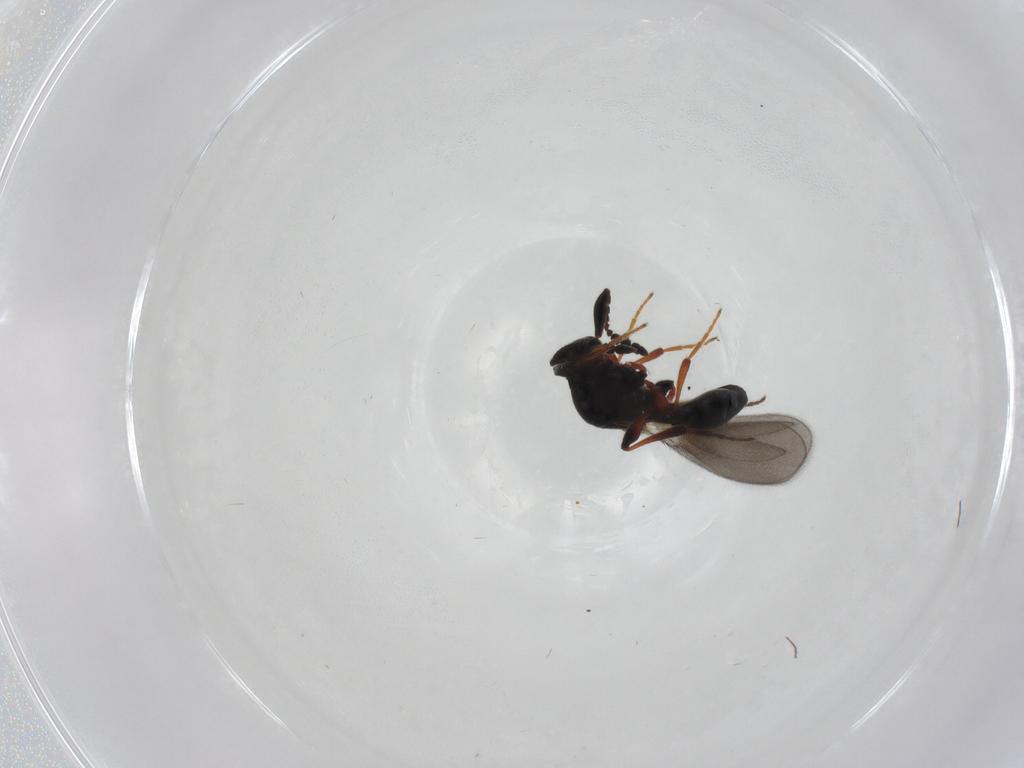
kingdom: Animalia
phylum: Arthropoda
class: Insecta
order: Hymenoptera
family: Platygastridae
